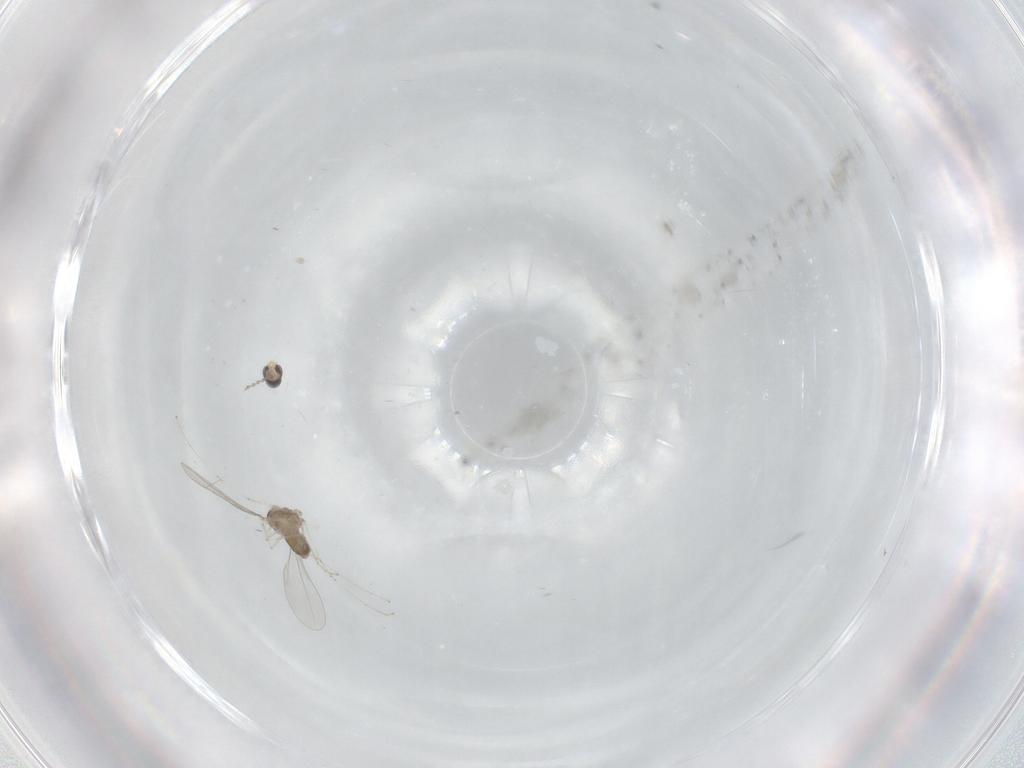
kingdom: Animalia
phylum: Arthropoda
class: Insecta
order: Diptera
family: Cecidomyiidae
